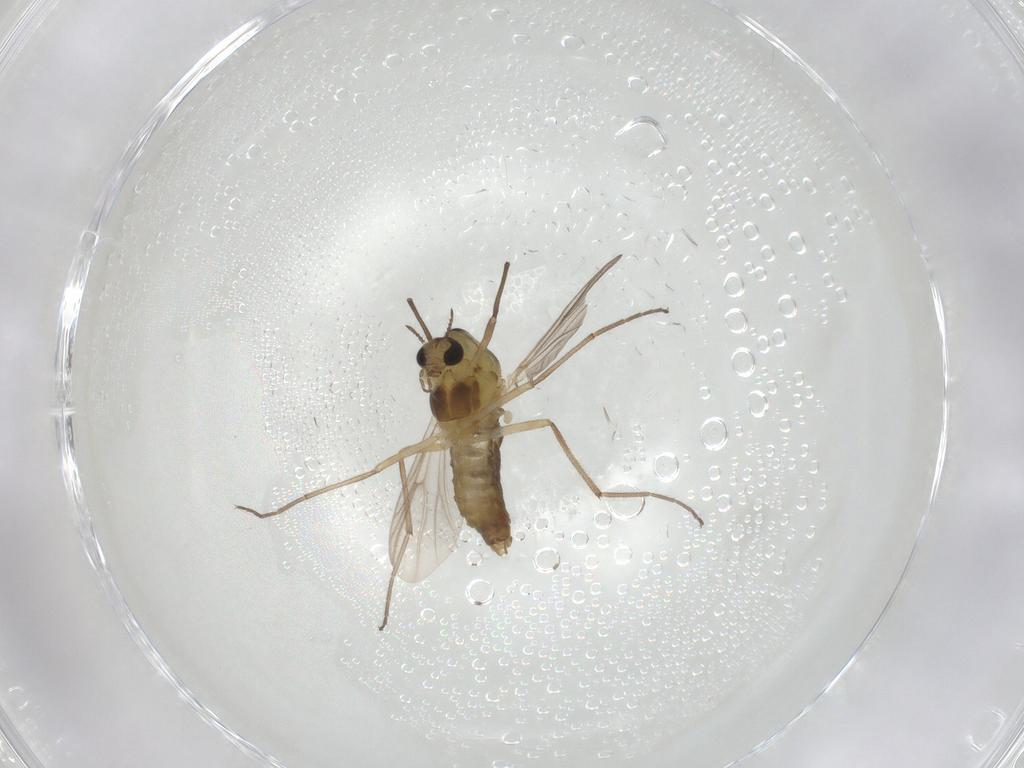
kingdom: Animalia
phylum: Arthropoda
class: Insecta
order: Diptera
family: Chironomidae
